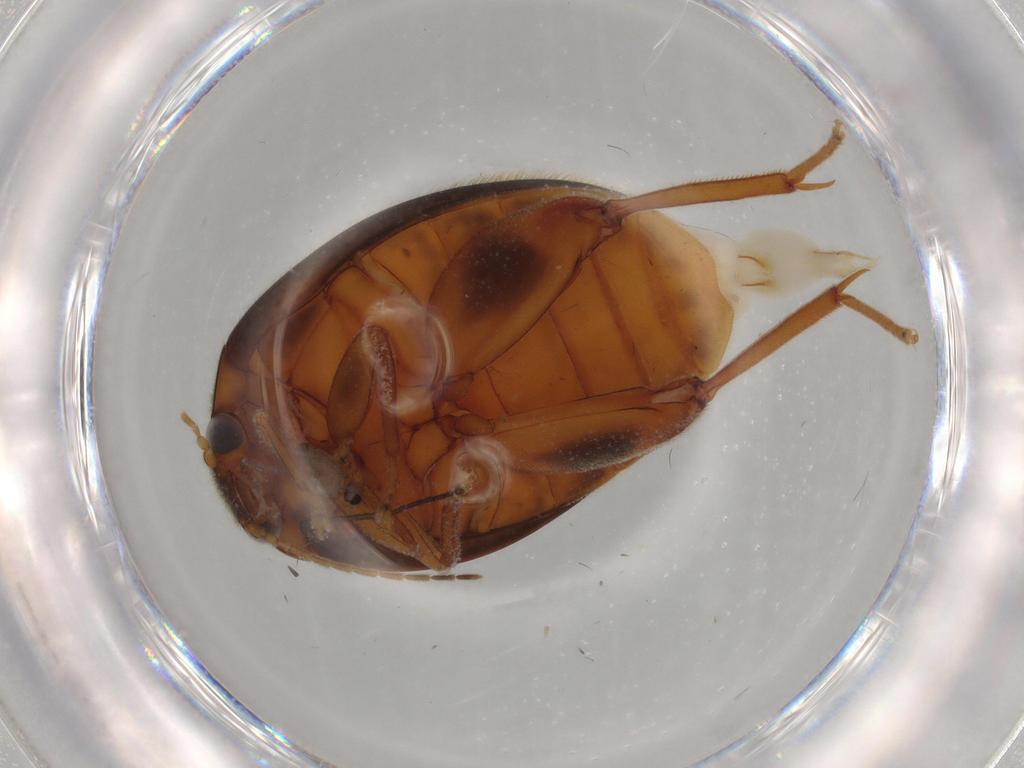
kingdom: Animalia
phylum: Arthropoda
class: Insecta
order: Coleoptera
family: Scirtidae
